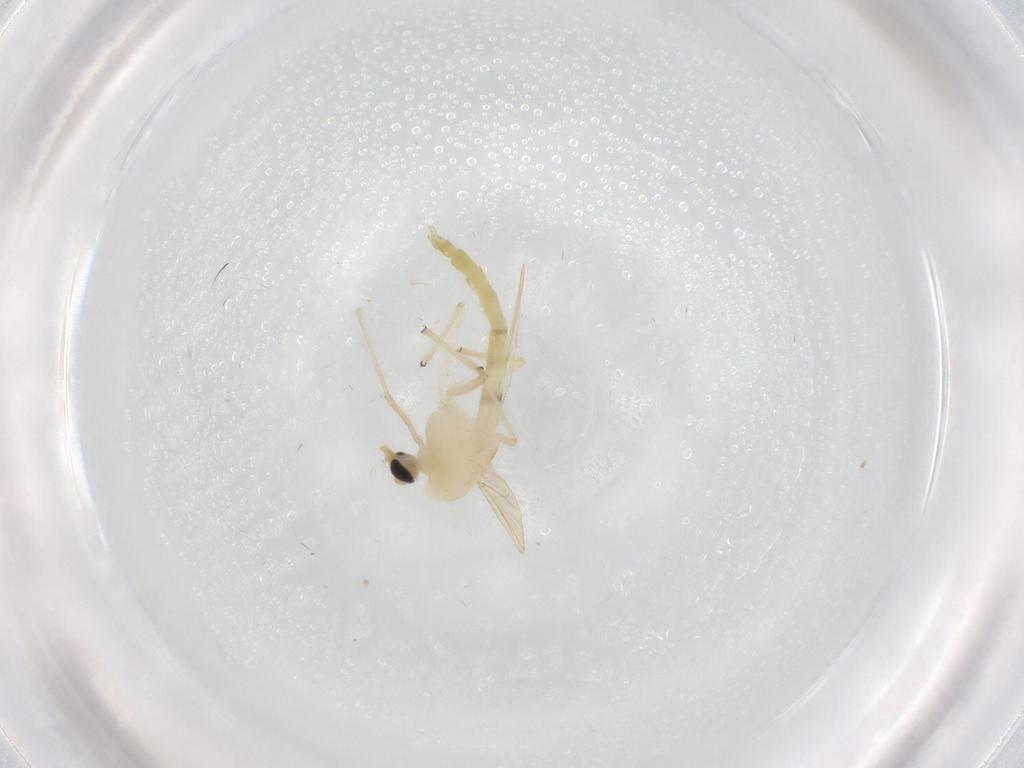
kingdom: Animalia
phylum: Arthropoda
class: Insecta
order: Diptera
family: Chironomidae
